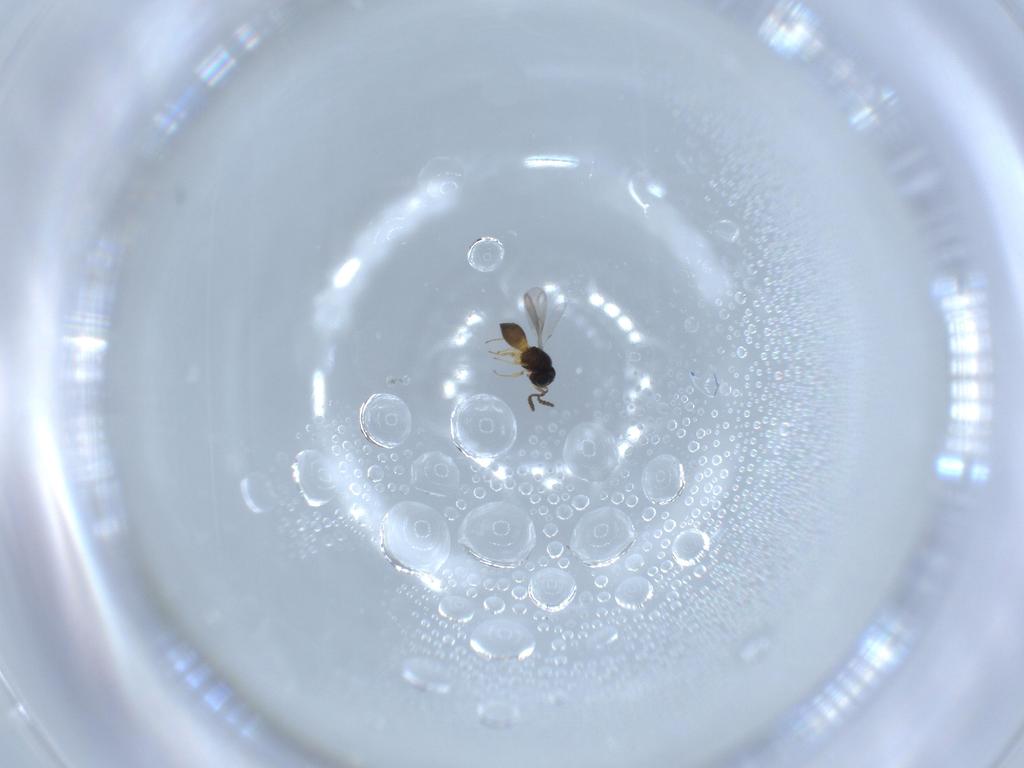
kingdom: Animalia
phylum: Arthropoda
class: Insecta
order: Hymenoptera
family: Scelionidae
